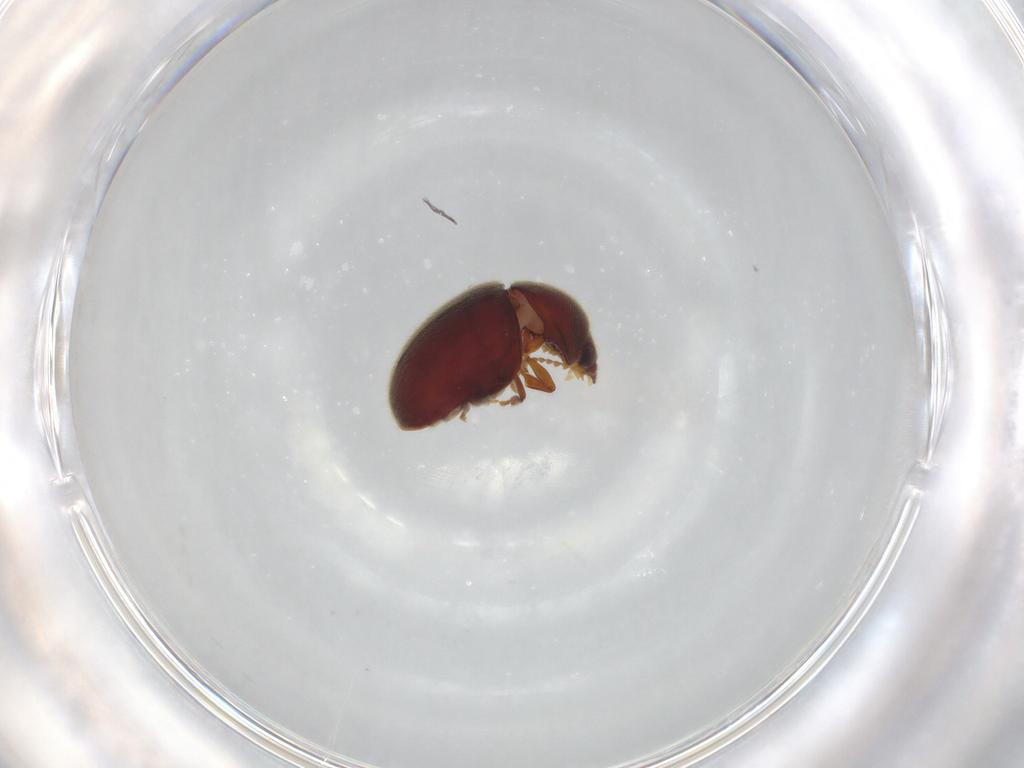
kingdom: Animalia
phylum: Arthropoda
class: Insecta
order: Coleoptera
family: Ptinidae
